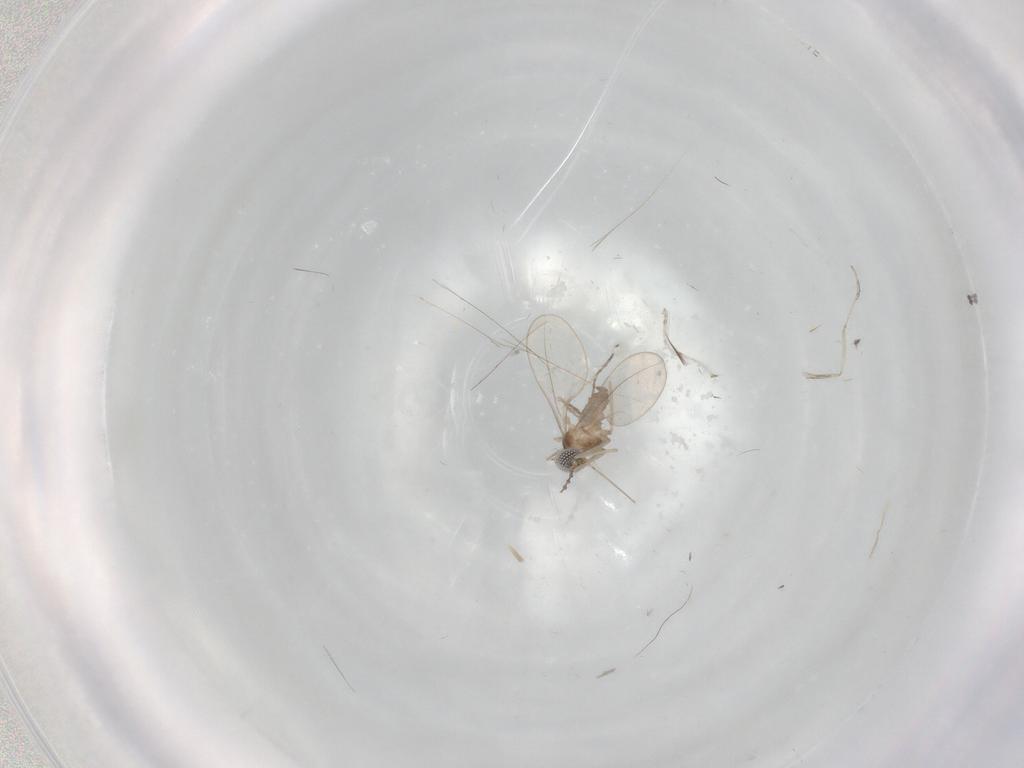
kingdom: Animalia
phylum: Arthropoda
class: Insecta
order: Diptera
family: Cecidomyiidae
